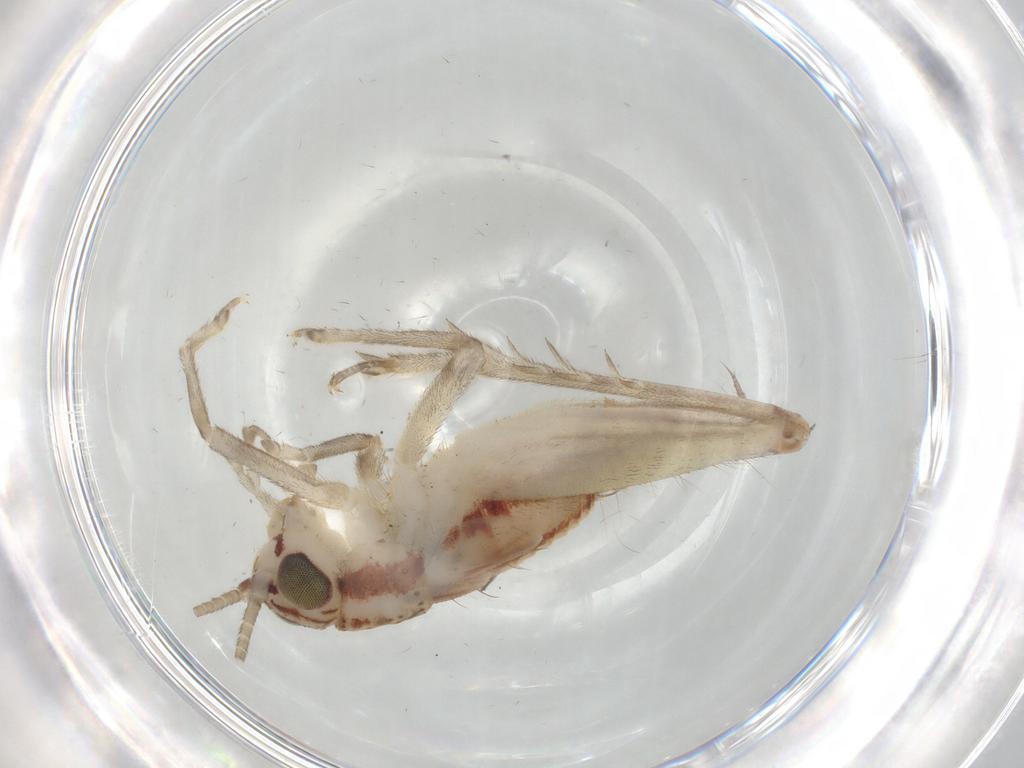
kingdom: Animalia
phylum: Arthropoda
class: Insecta
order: Orthoptera
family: Trigonidiidae
